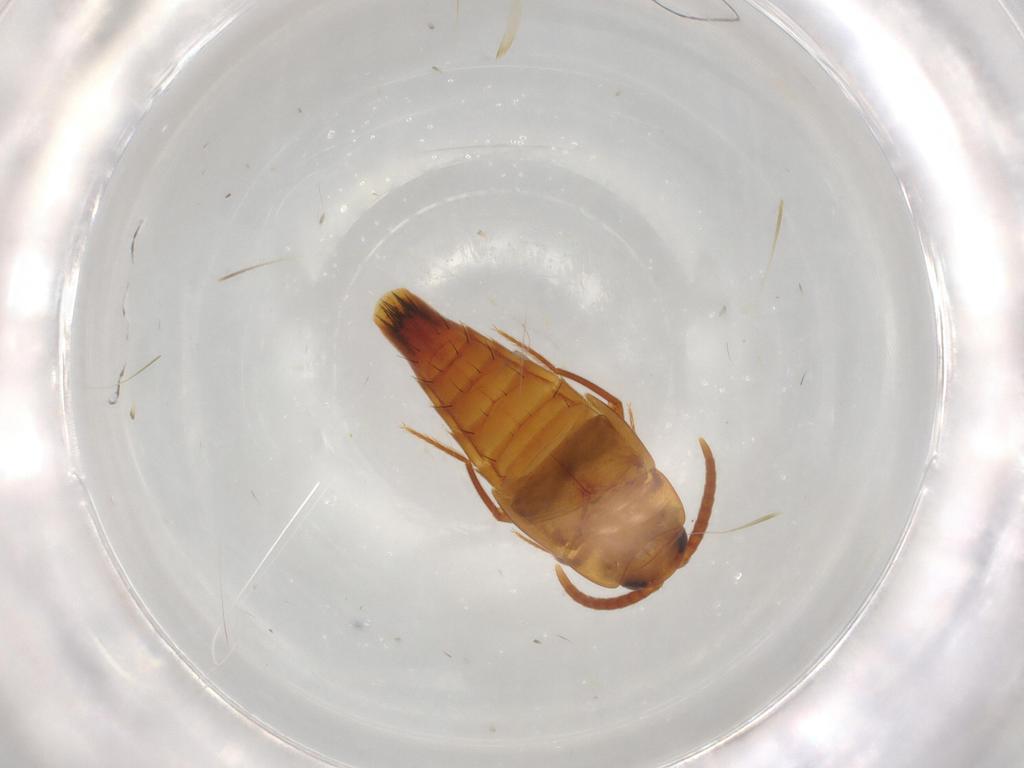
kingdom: Animalia
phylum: Arthropoda
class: Insecta
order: Coleoptera
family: Staphylinidae
